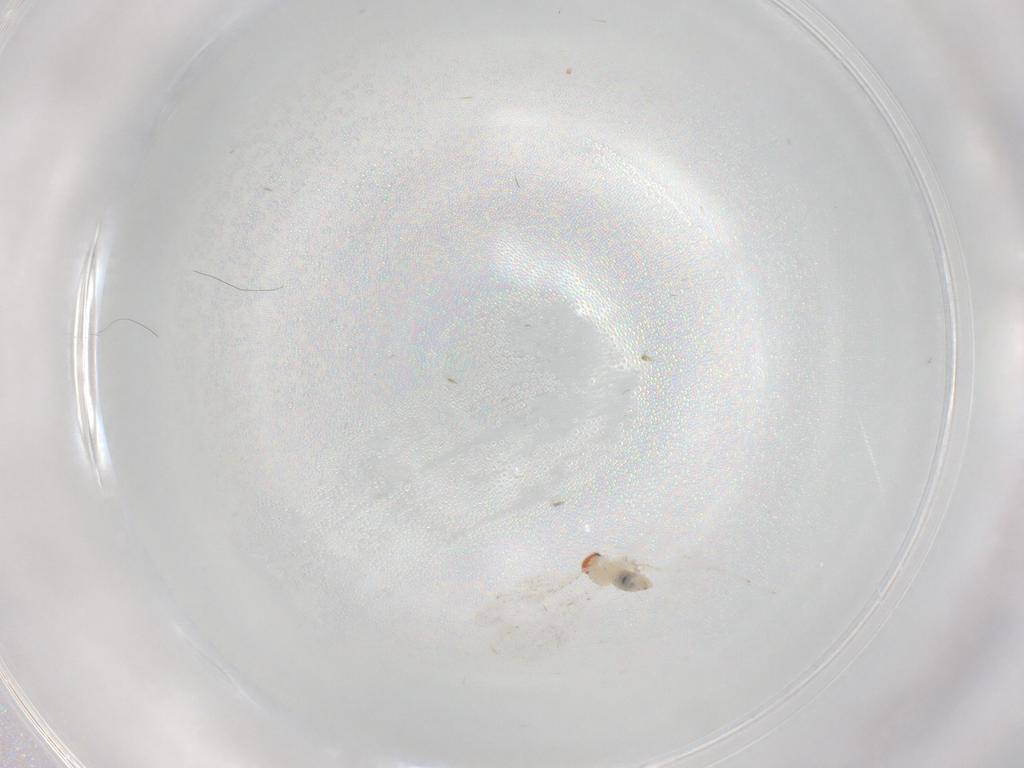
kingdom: Animalia
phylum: Arthropoda
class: Insecta
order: Diptera
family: Cecidomyiidae
